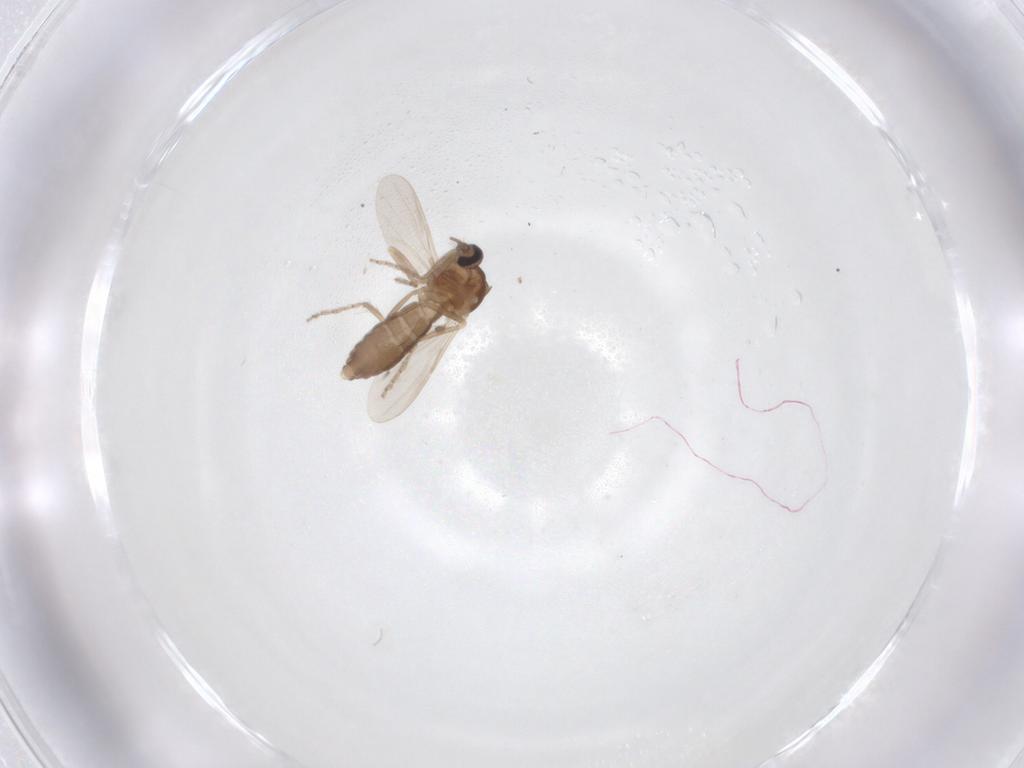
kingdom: Animalia
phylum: Arthropoda
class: Insecta
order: Diptera
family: Ceratopogonidae
